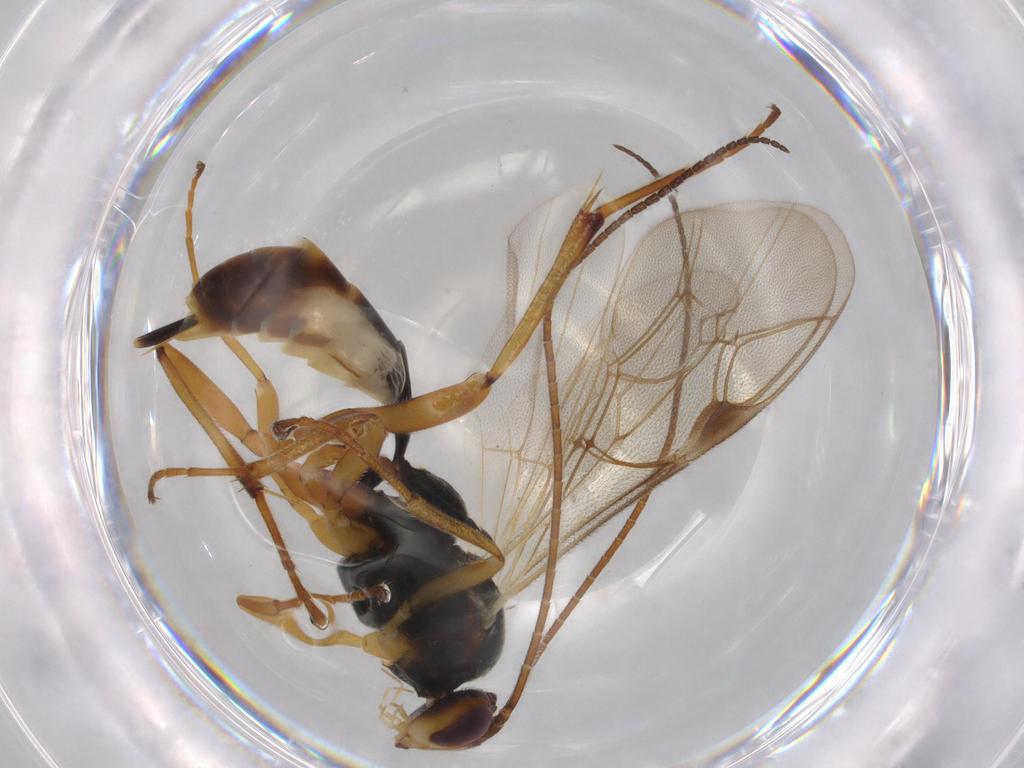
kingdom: Animalia
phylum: Arthropoda
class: Insecta
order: Hymenoptera
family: Ichneumonidae
